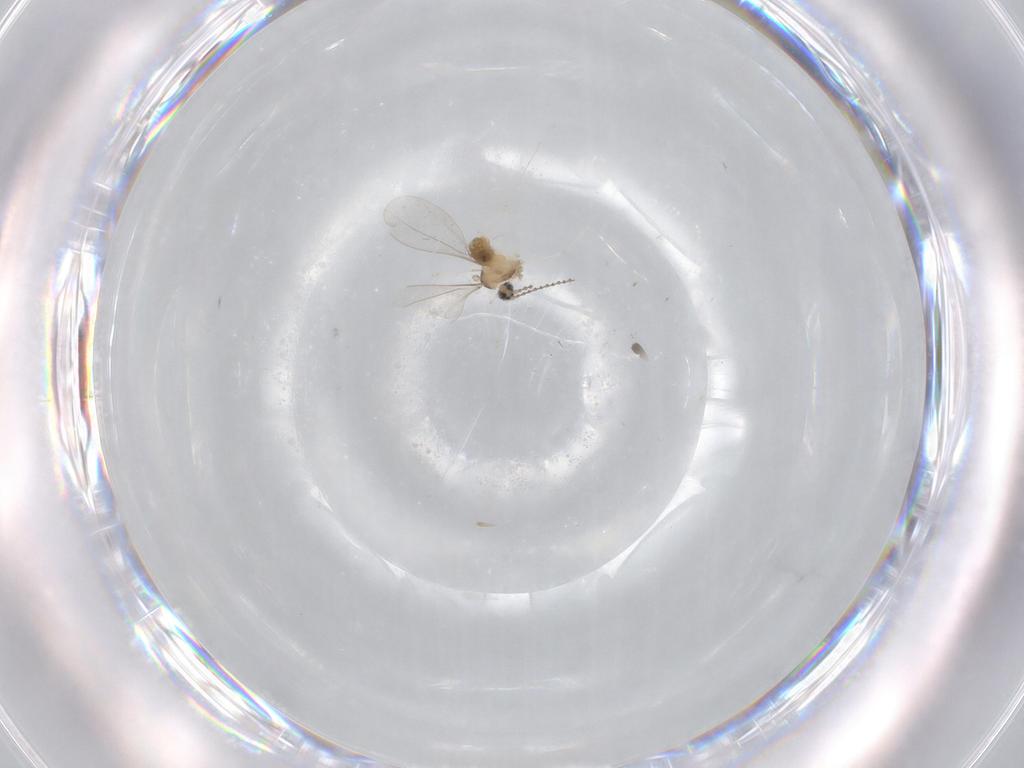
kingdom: Animalia
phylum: Arthropoda
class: Insecta
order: Diptera
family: Cecidomyiidae
